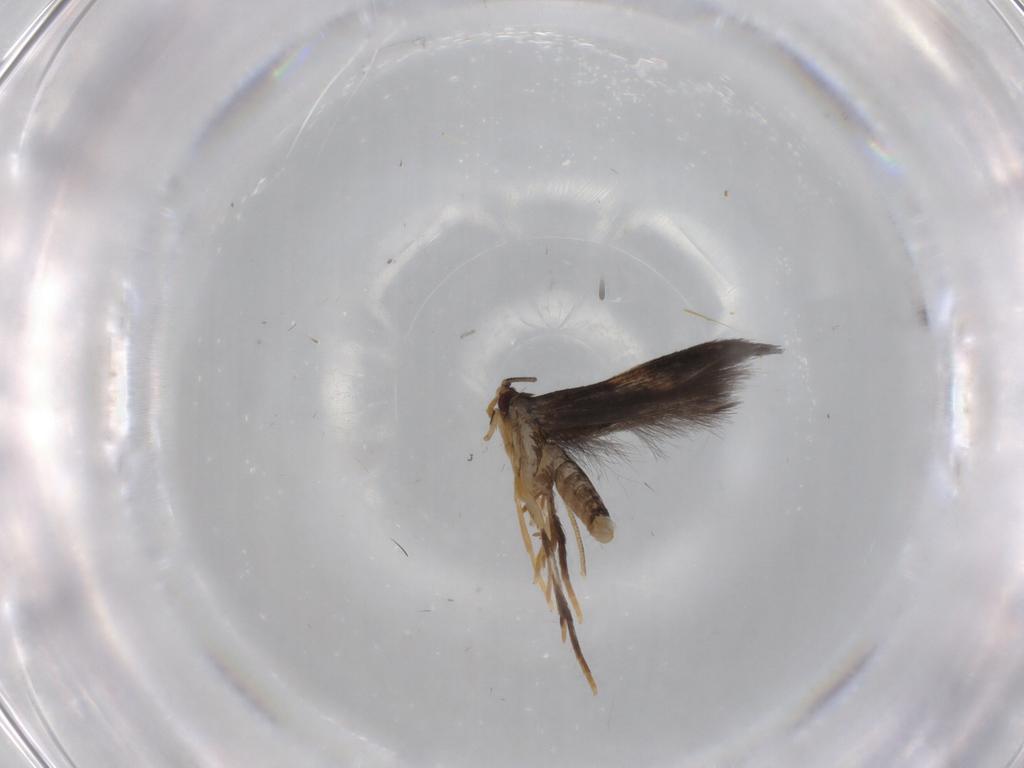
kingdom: Animalia
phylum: Arthropoda
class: Insecta
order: Lepidoptera
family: Gelechiidae
